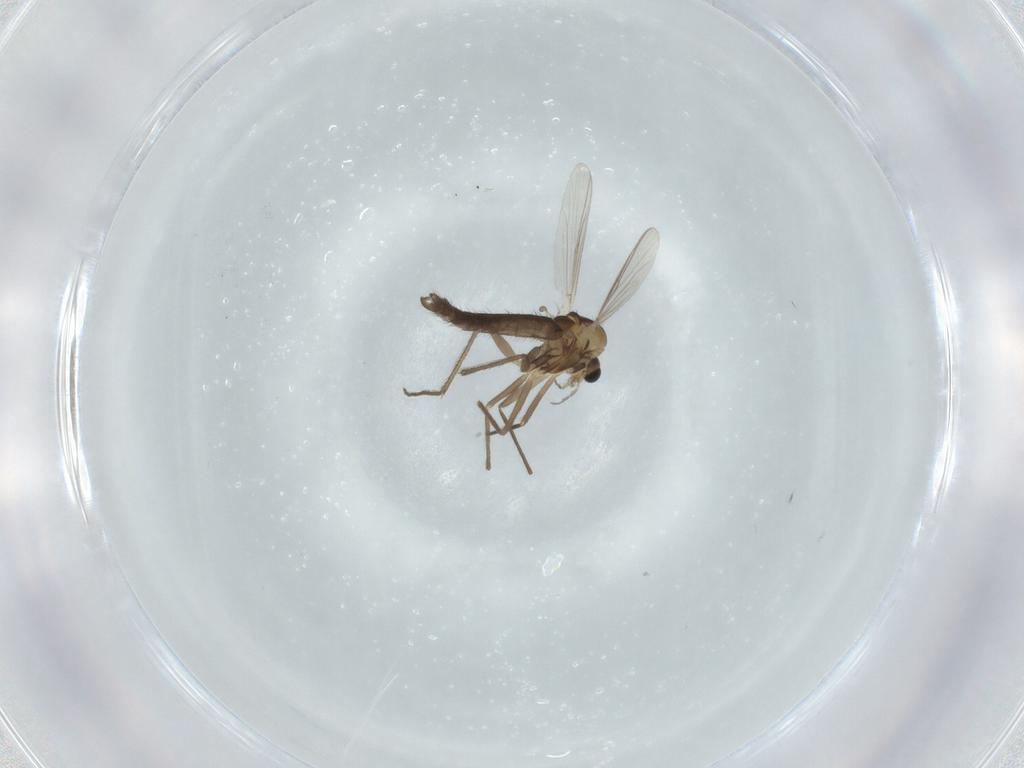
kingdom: Animalia
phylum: Arthropoda
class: Insecta
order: Diptera
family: Chironomidae
